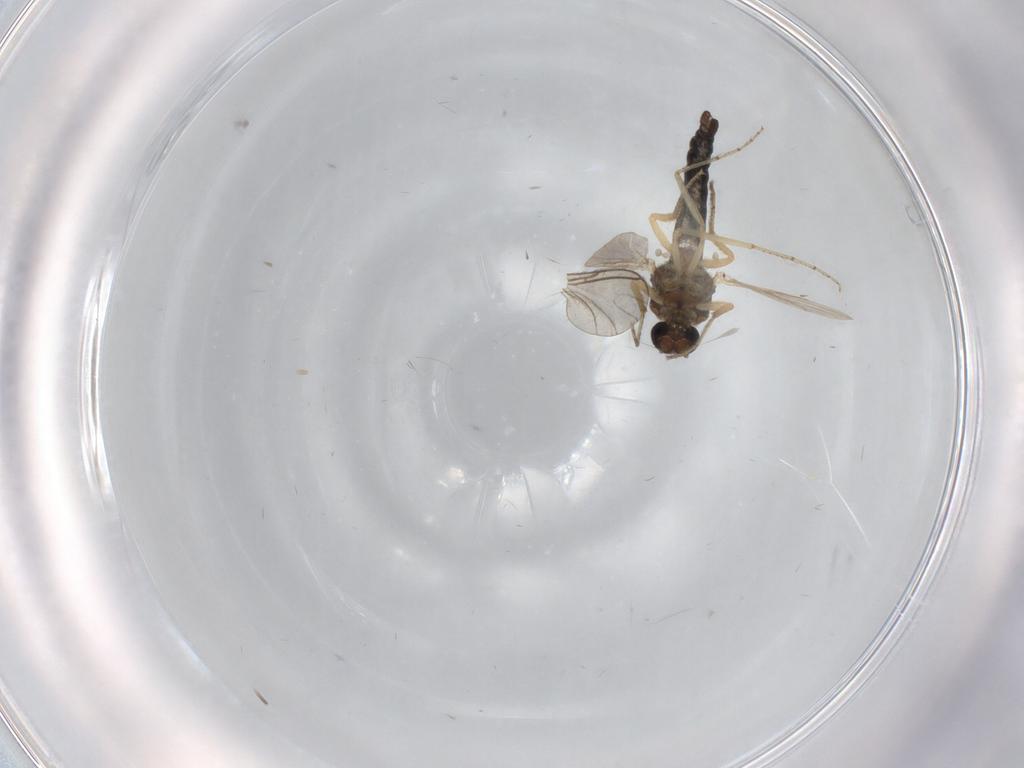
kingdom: Animalia
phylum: Arthropoda
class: Insecta
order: Diptera
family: Ceratopogonidae
